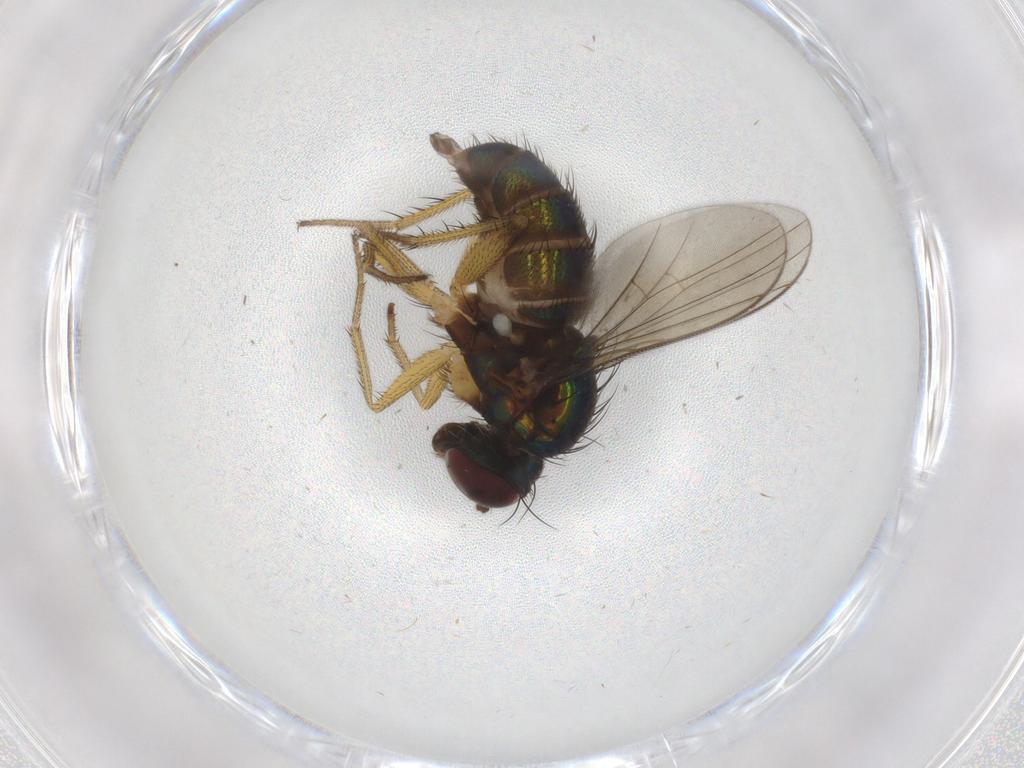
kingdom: Animalia
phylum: Arthropoda
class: Insecta
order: Diptera
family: Dolichopodidae
